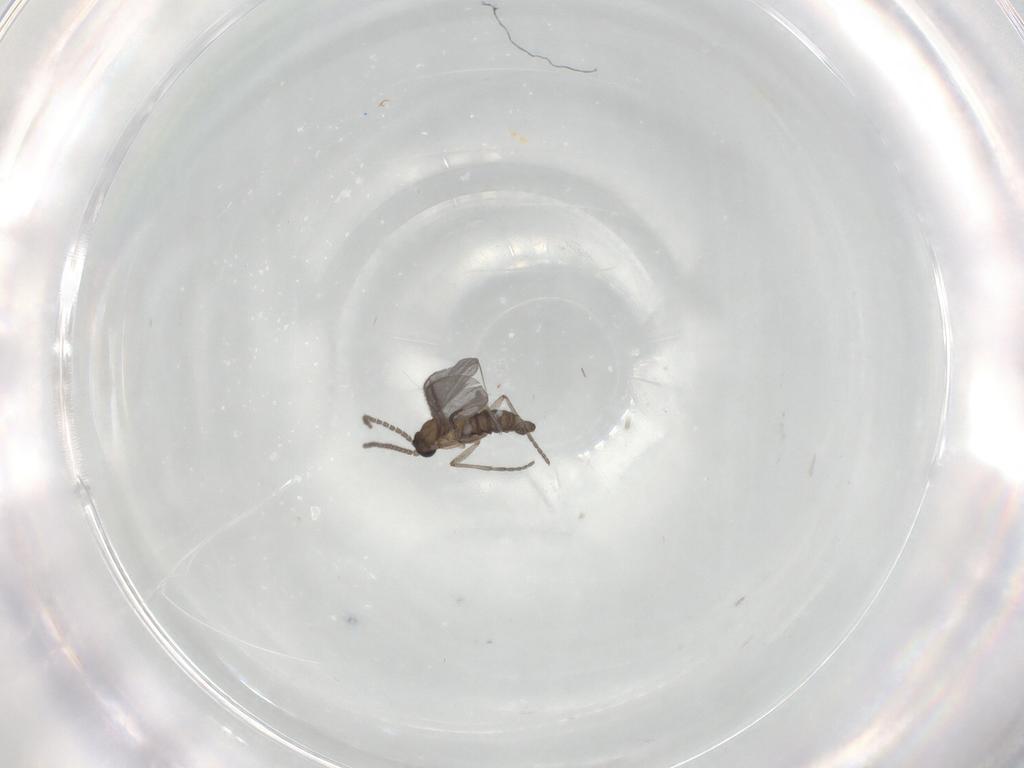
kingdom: Animalia
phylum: Arthropoda
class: Insecta
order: Diptera
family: Sciaridae
